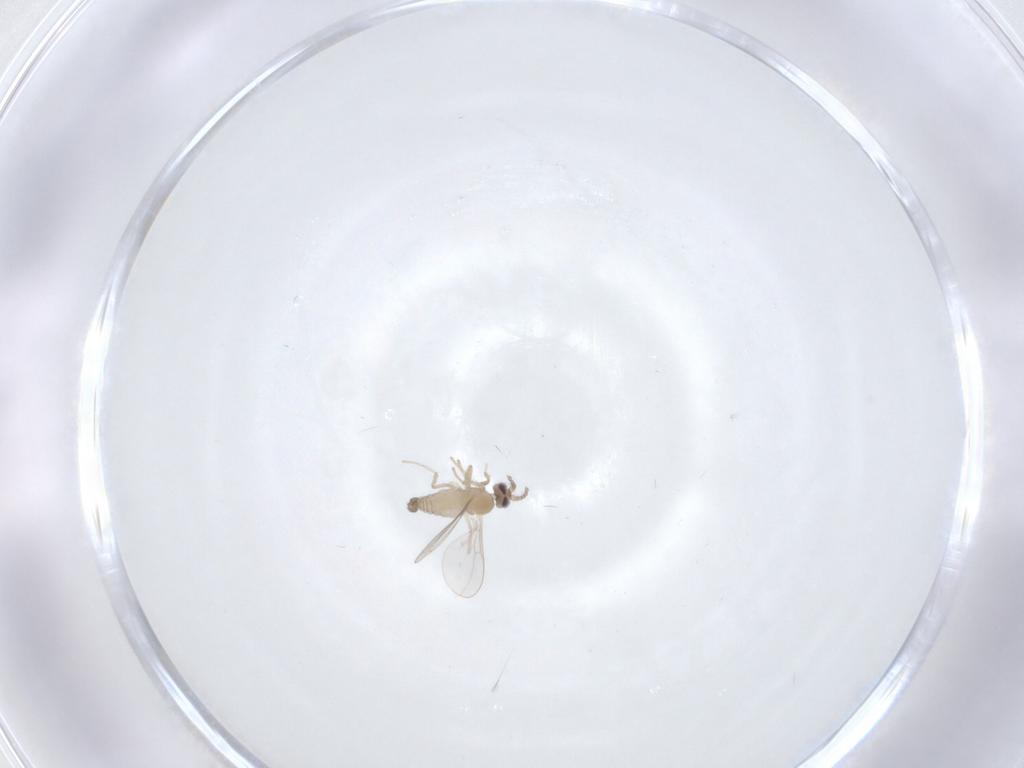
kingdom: Animalia
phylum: Arthropoda
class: Insecta
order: Diptera
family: Cecidomyiidae
